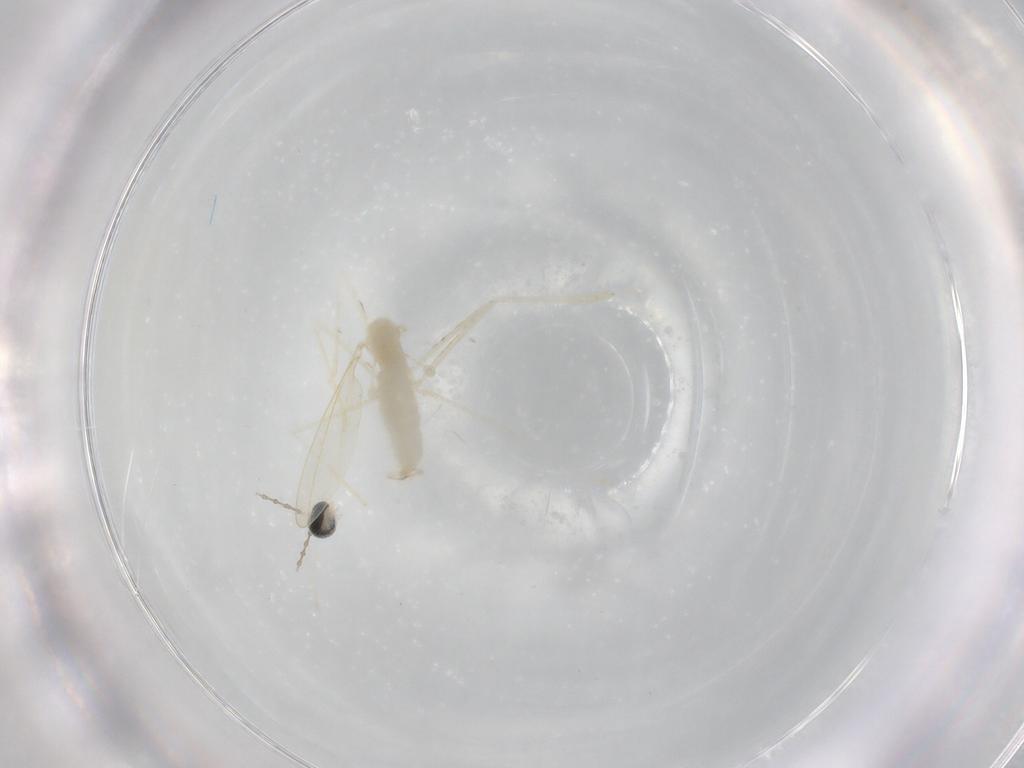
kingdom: Animalia
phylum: Arthropoda
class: Insecta
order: Diptera
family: Cecidomyiidae
